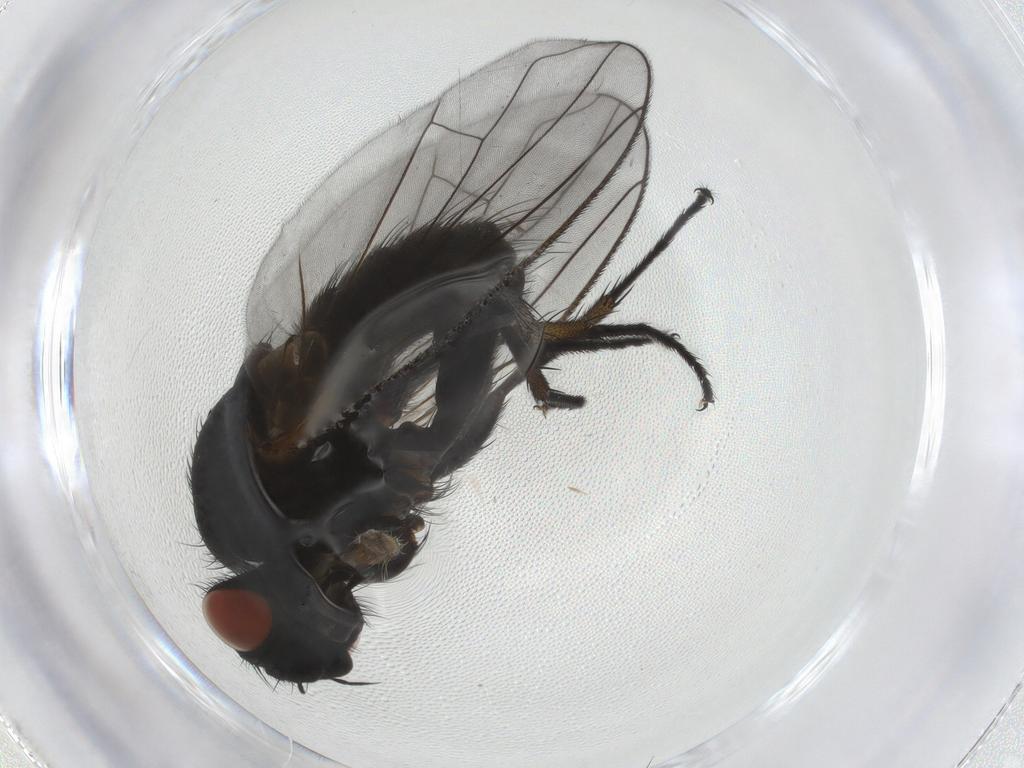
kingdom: Animalia
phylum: Arthropoda
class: Insecta
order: Diptera
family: Tachinidae
